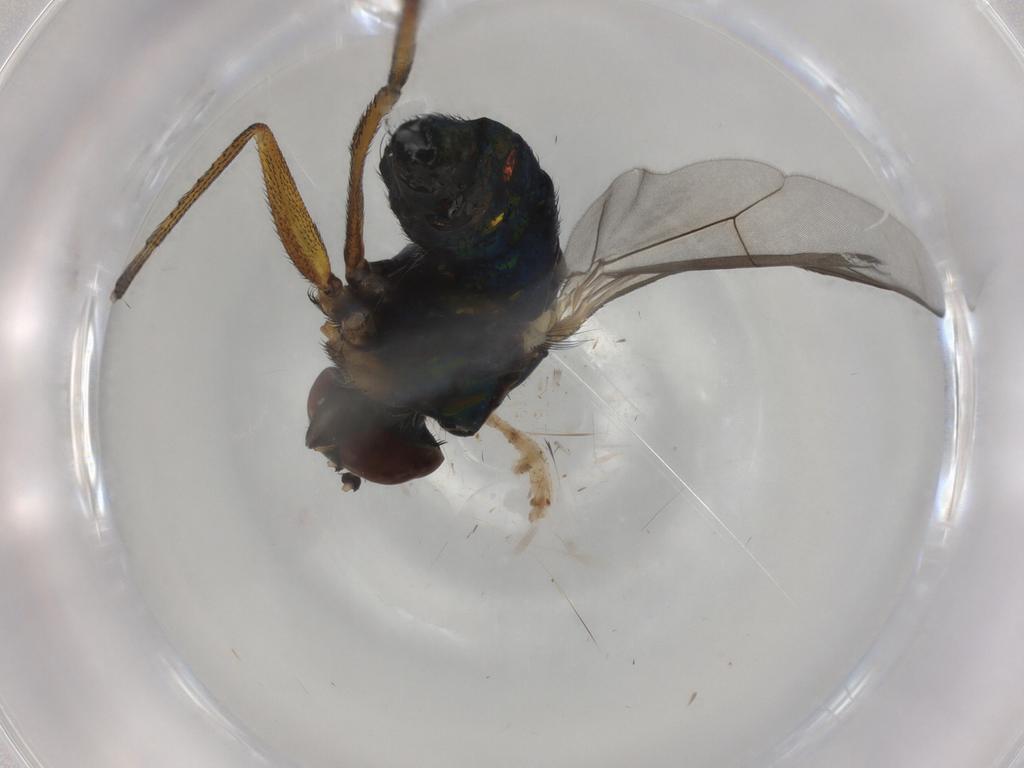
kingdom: Animalia
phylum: Arthropoda
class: Insecta
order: Diptera
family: Dolichopodidae
